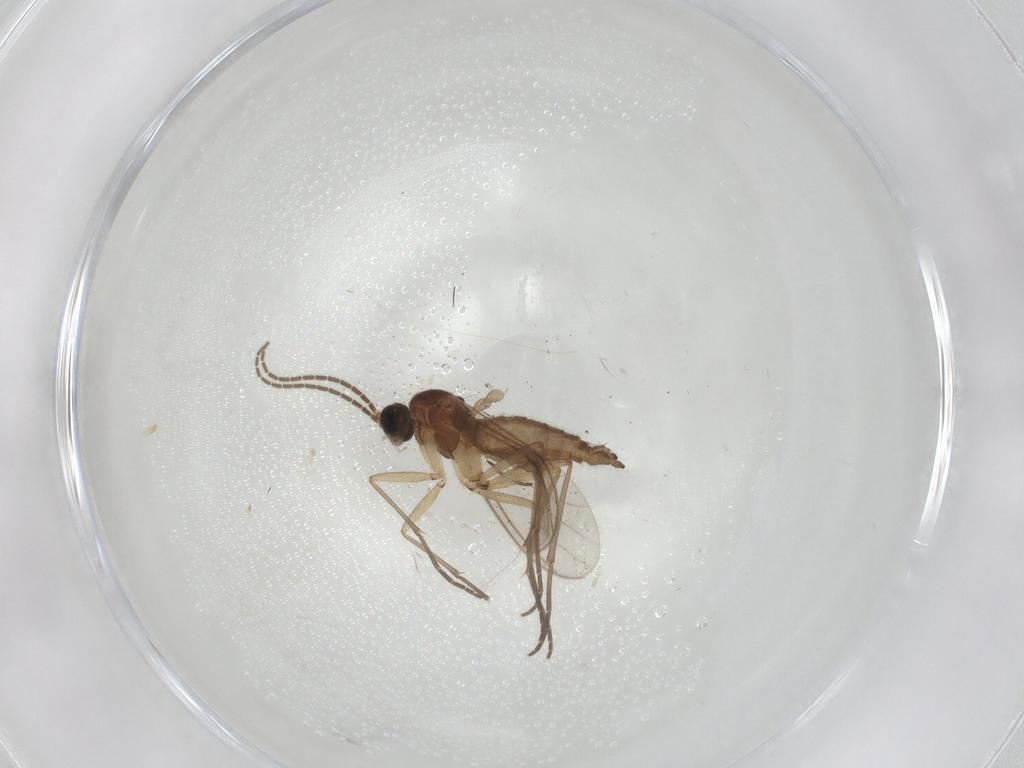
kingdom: Animalia
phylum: Arthropoda
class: Insecta
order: Diptera
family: Sciaridae
